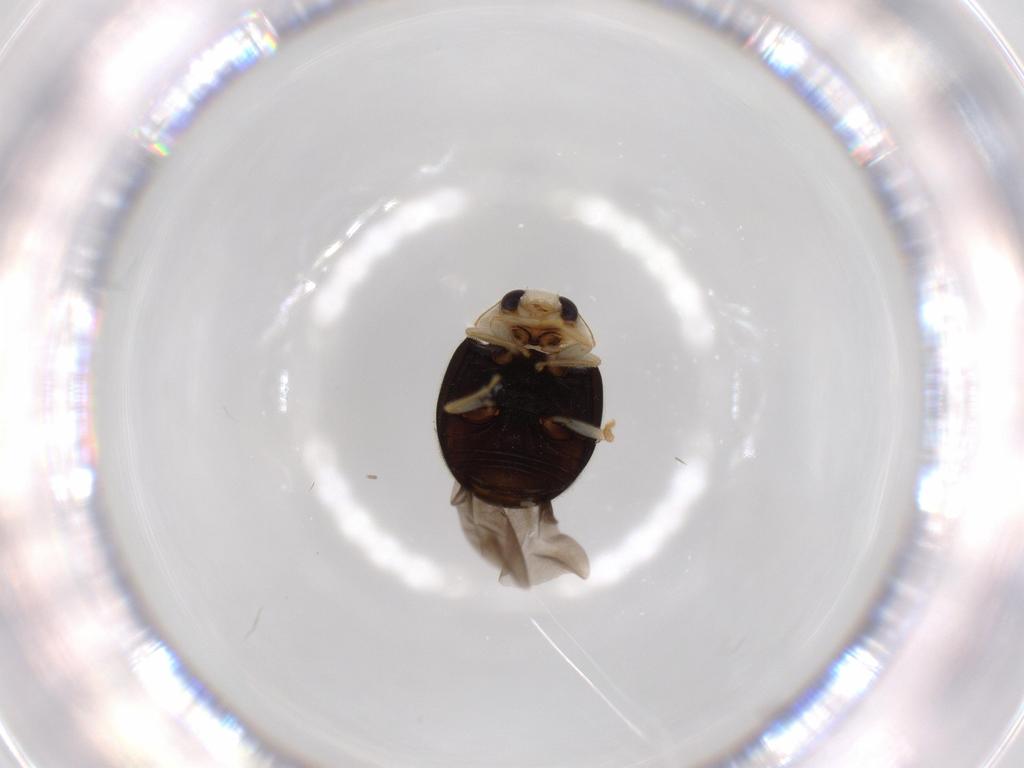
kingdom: Animalia
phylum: Arthropoda
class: Insecta
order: Coleoptera
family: Coccinellidae
